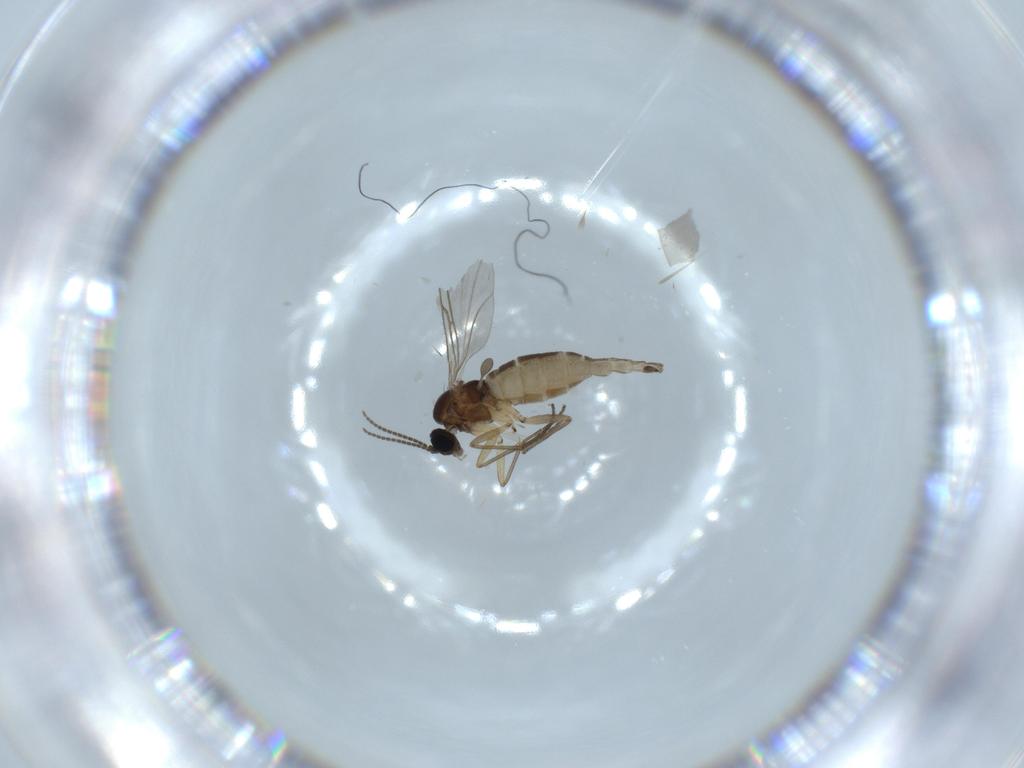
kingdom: Animalia
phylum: Arthropoda
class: Insecta
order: Diptera
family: Sciaridae
